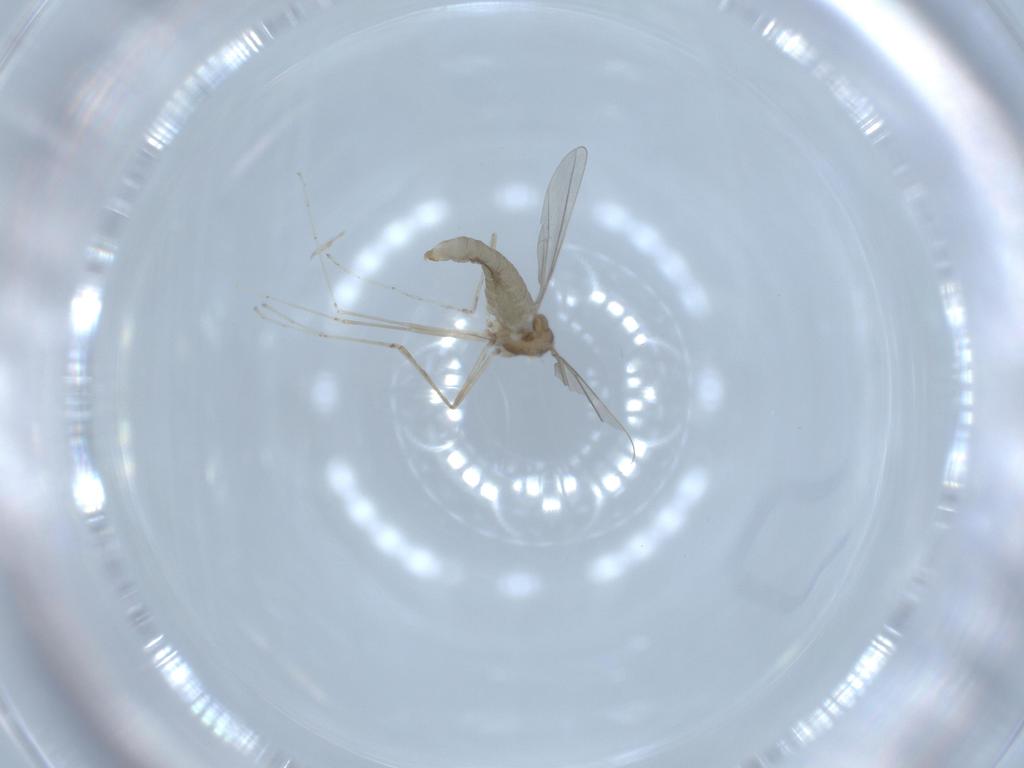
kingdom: Animalia
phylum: Arthropoda
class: Insecta
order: Diptera
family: Cecidomyiidae
